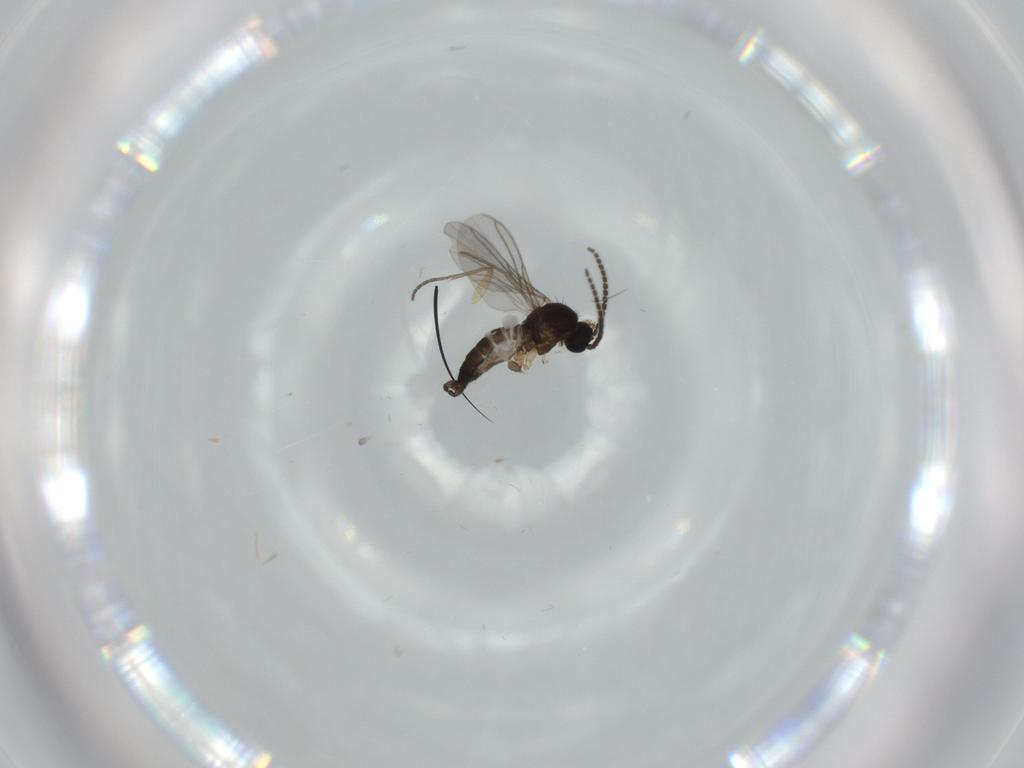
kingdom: Animalia
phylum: Arthropoda
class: Insecta
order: Diptera
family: Sciaridae
